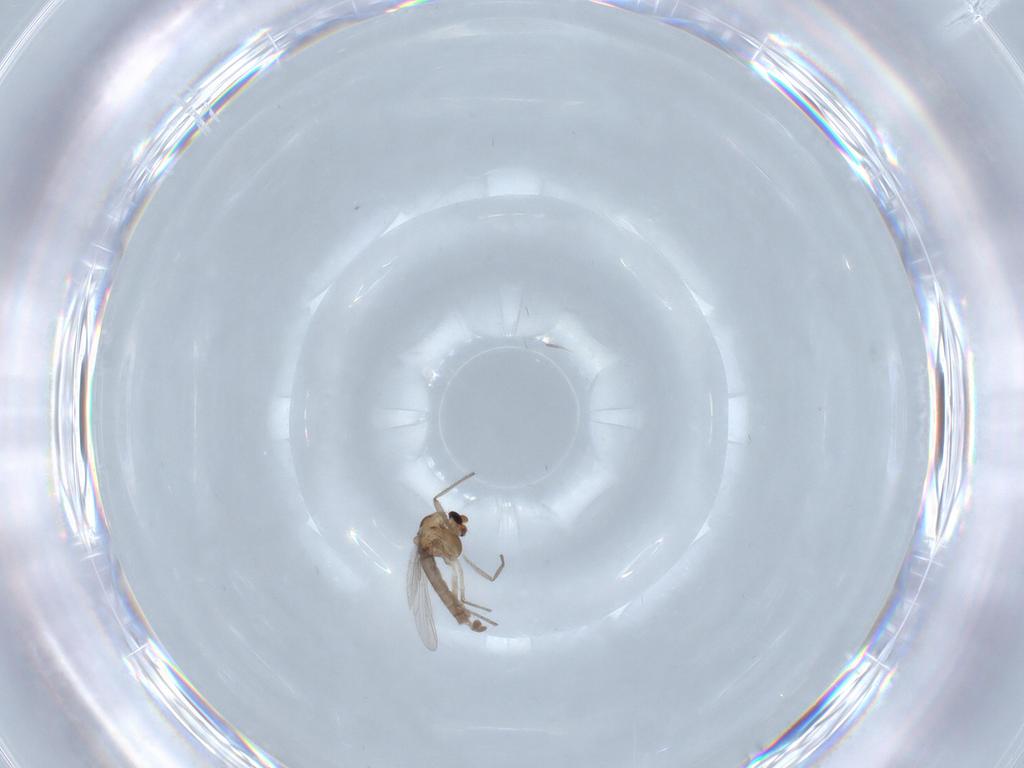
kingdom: Animalia
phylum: Arthropoda
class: Insecta
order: Diptera
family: Chironomidae
